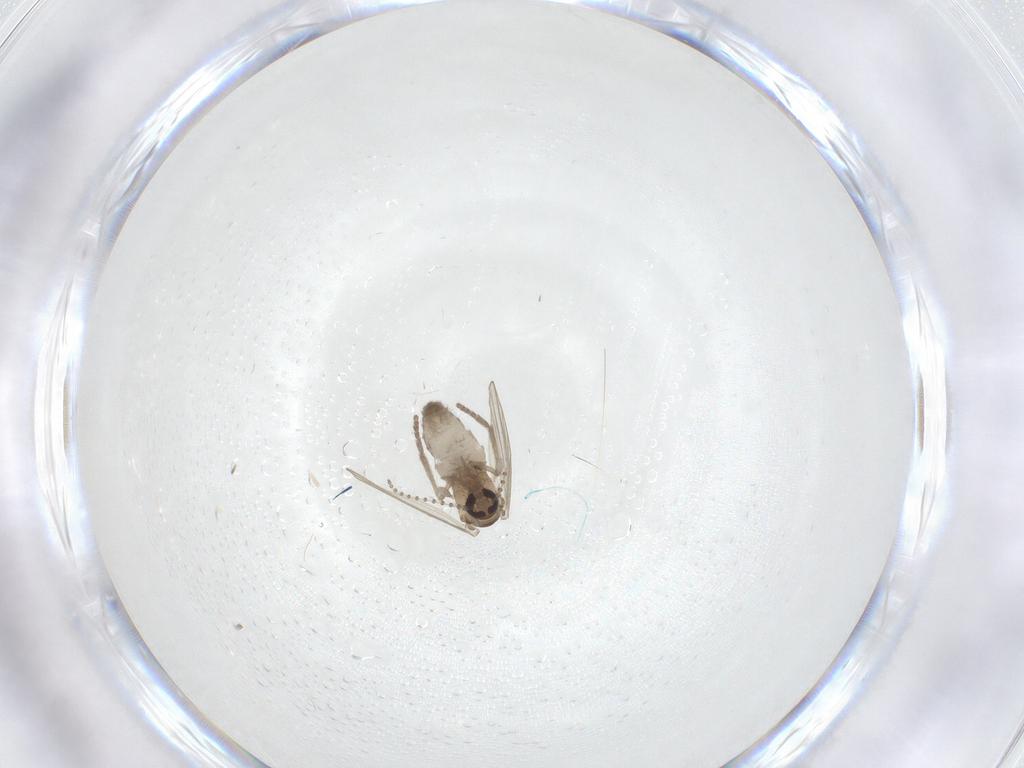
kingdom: Animalia
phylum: Arthropoda
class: Insecta
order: Diptera
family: Psychodidae
